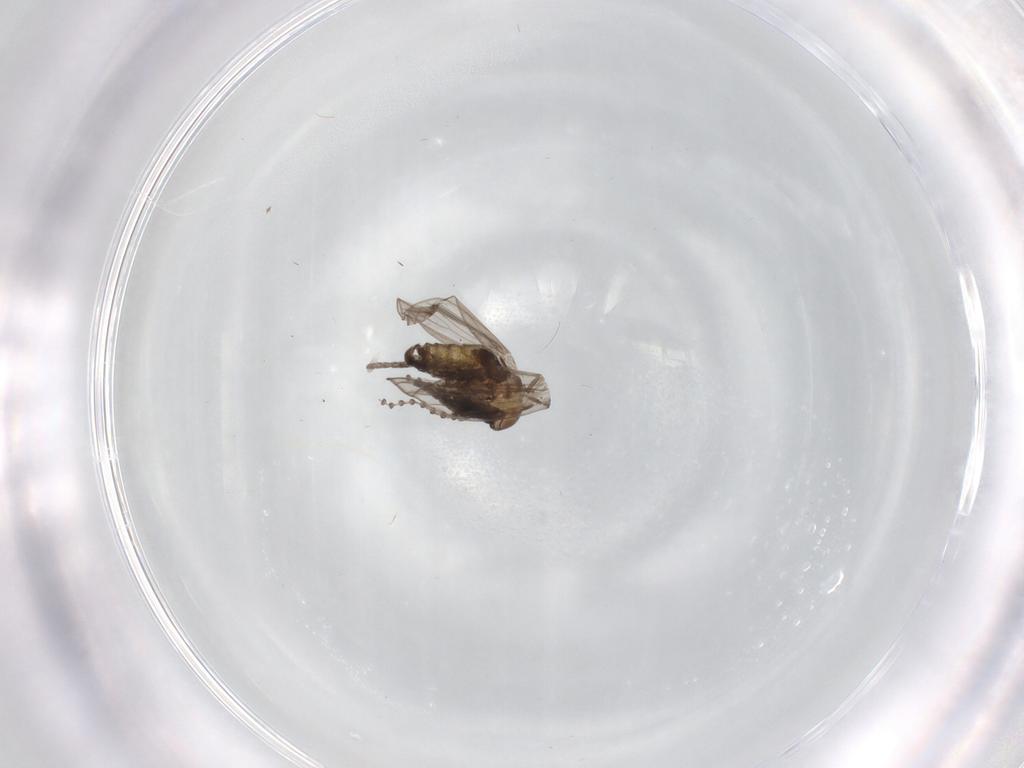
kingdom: Animalia
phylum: Arthropoda
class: Insecta
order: Diptera
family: Psychodidae
